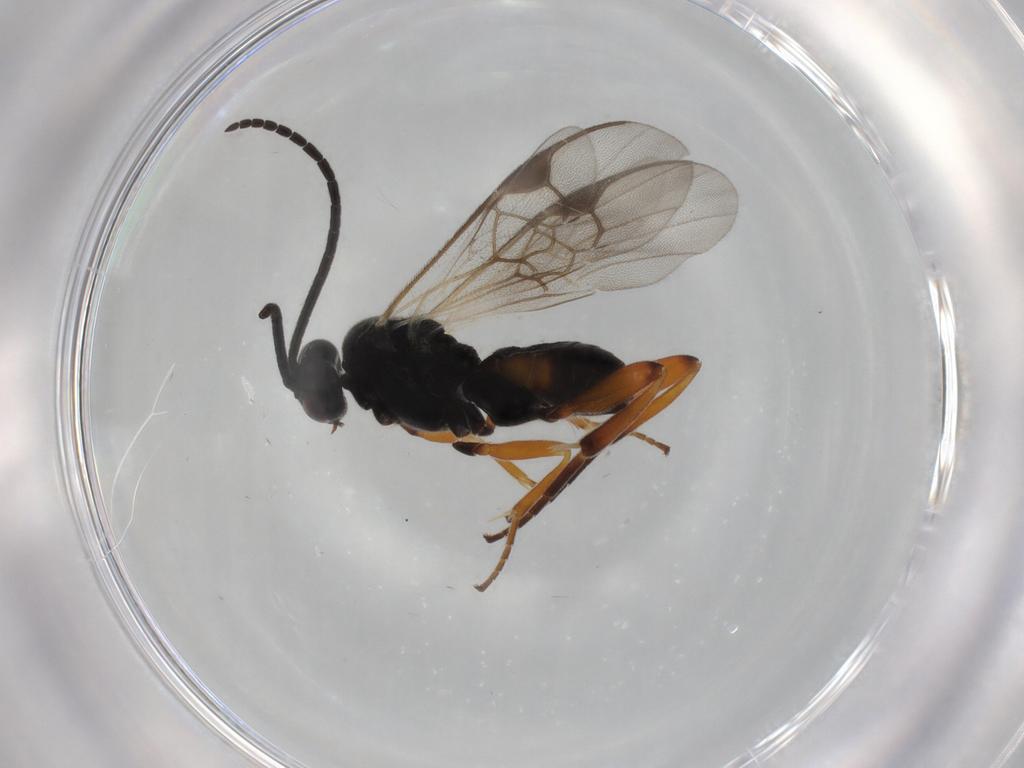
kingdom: Animalia
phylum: Arthropoda
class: Insecta
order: Hymenoptera
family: Braconidae
